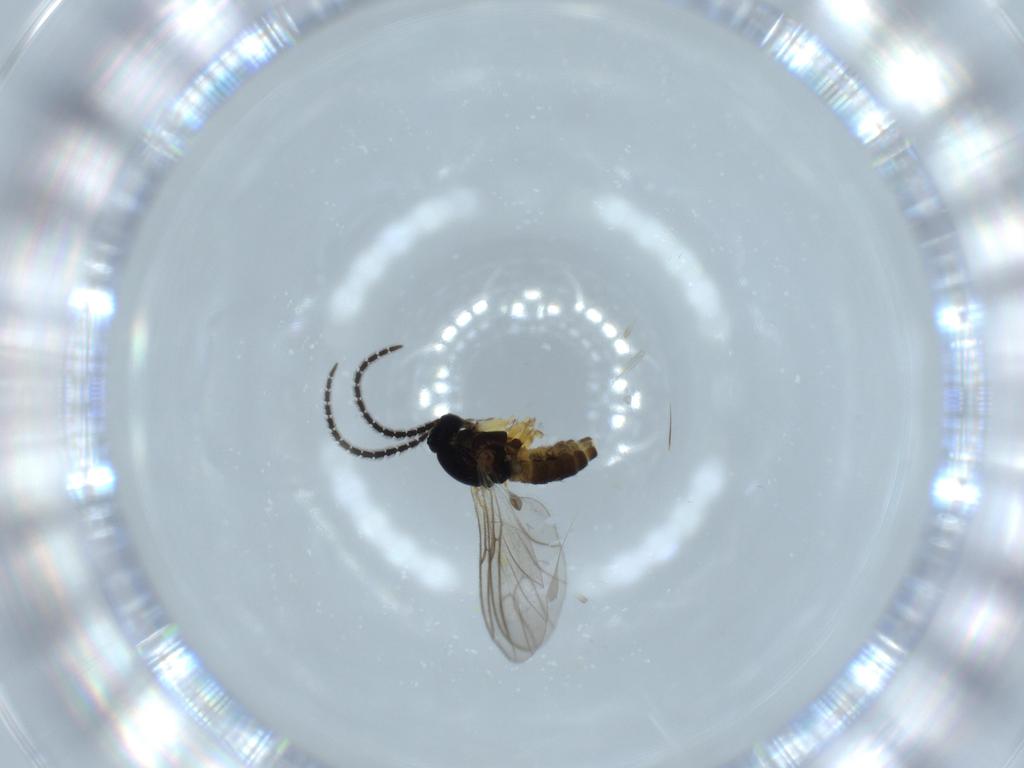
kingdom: Animalia
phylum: Arthropoda
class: Insecta
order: Diptera
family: Sciaridae
